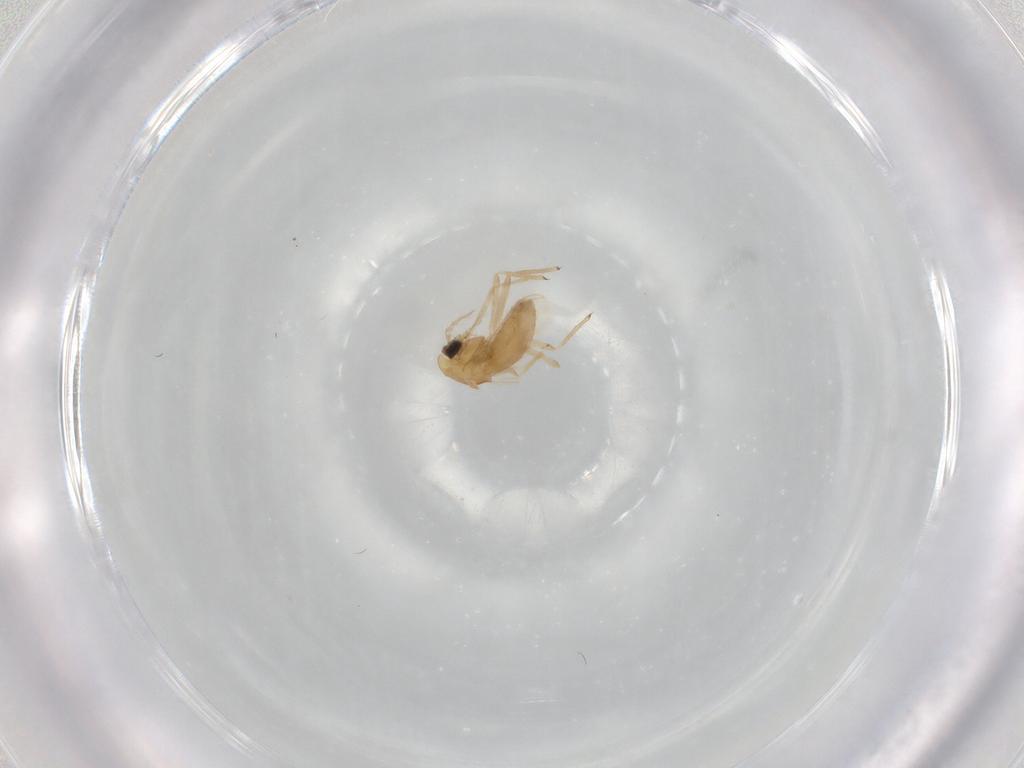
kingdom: Animalia
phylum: Arthropoda
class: Insecta
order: Diptera
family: Chironomidae
